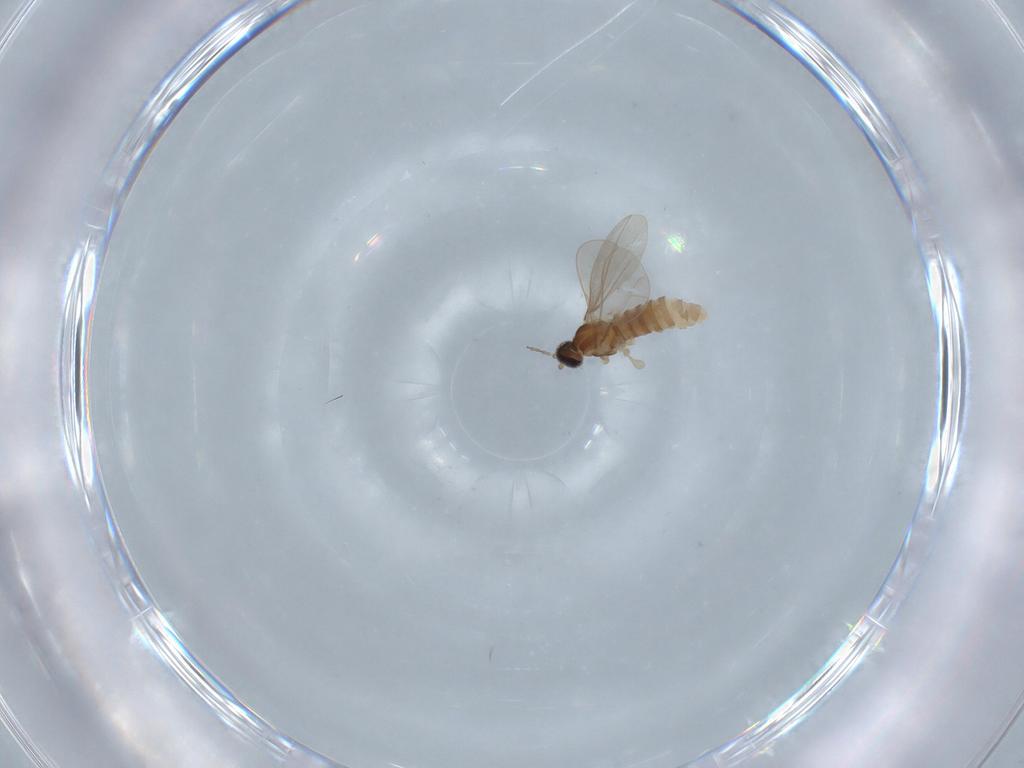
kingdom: Animalia
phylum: Arthropoda
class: Insecta
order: Diptera
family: Cecidomyiidae
